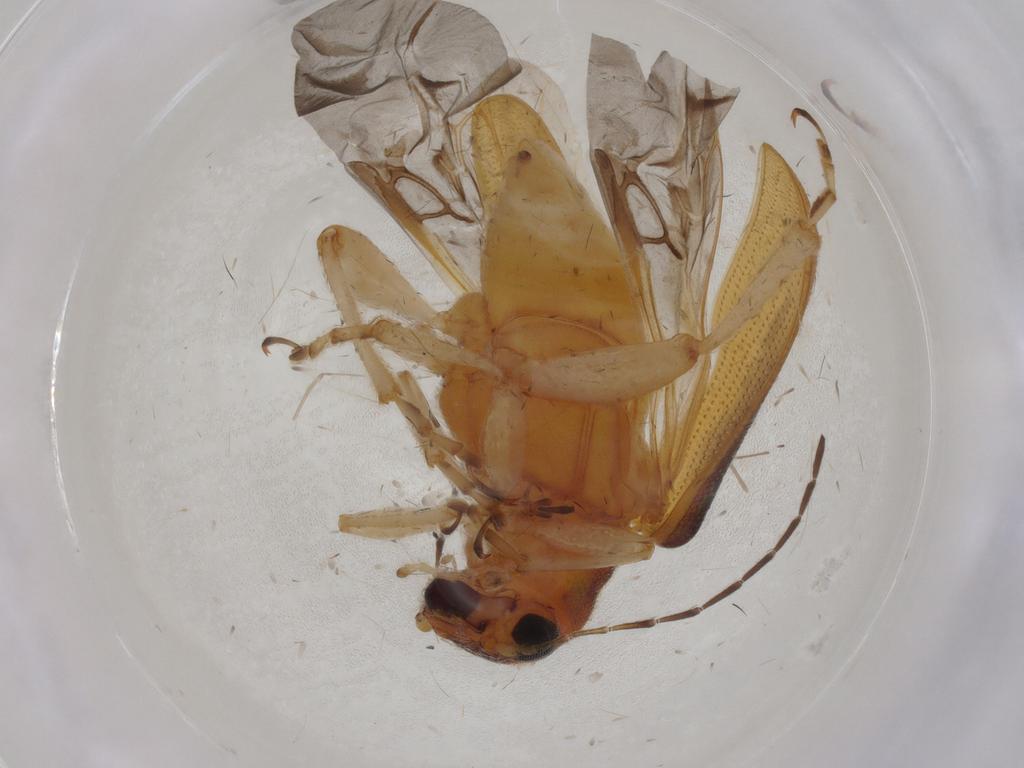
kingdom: Animalia
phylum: Arthropoda
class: Insecta
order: Coleoptera
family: Chrysomelidae
